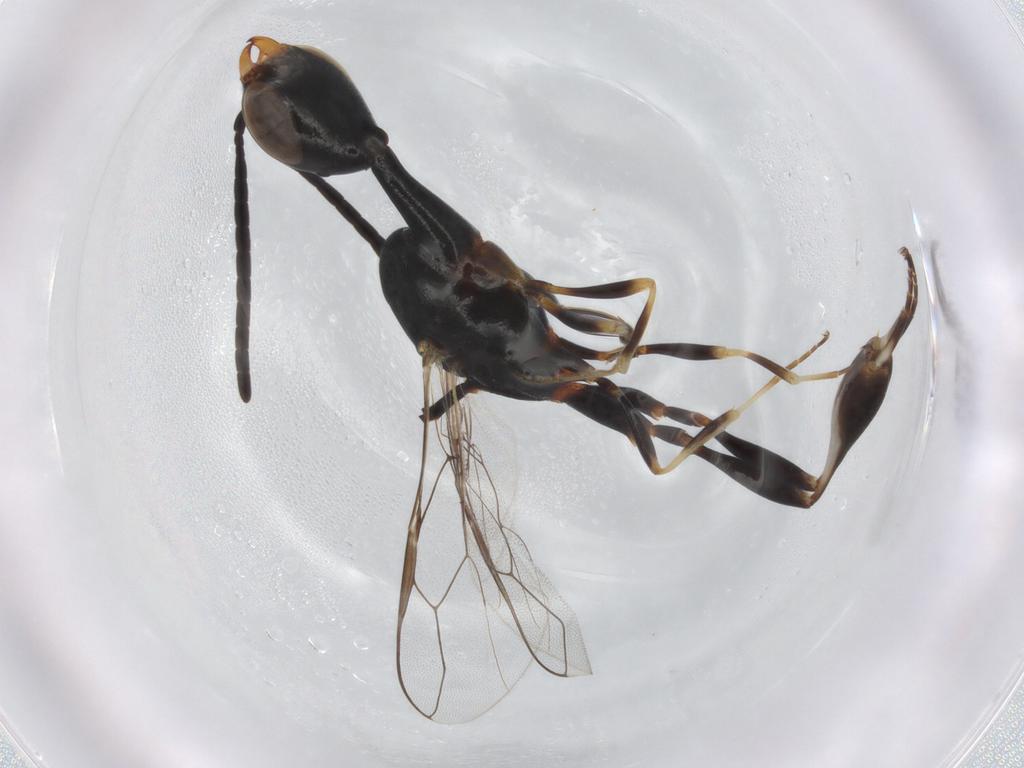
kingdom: Animalia
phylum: Arthropoda
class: Insecta
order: Hymenoptera
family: Gasteruptiidae
